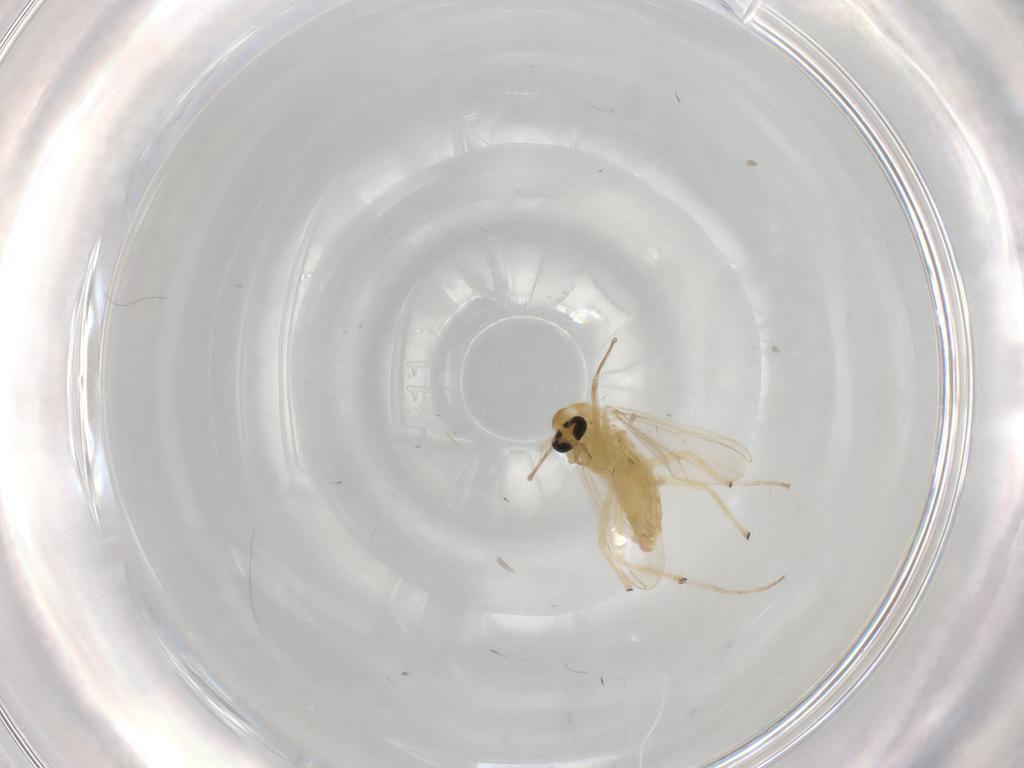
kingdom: Animalia
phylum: Arthropoda
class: Insecta
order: Diptera
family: Chironomidae
